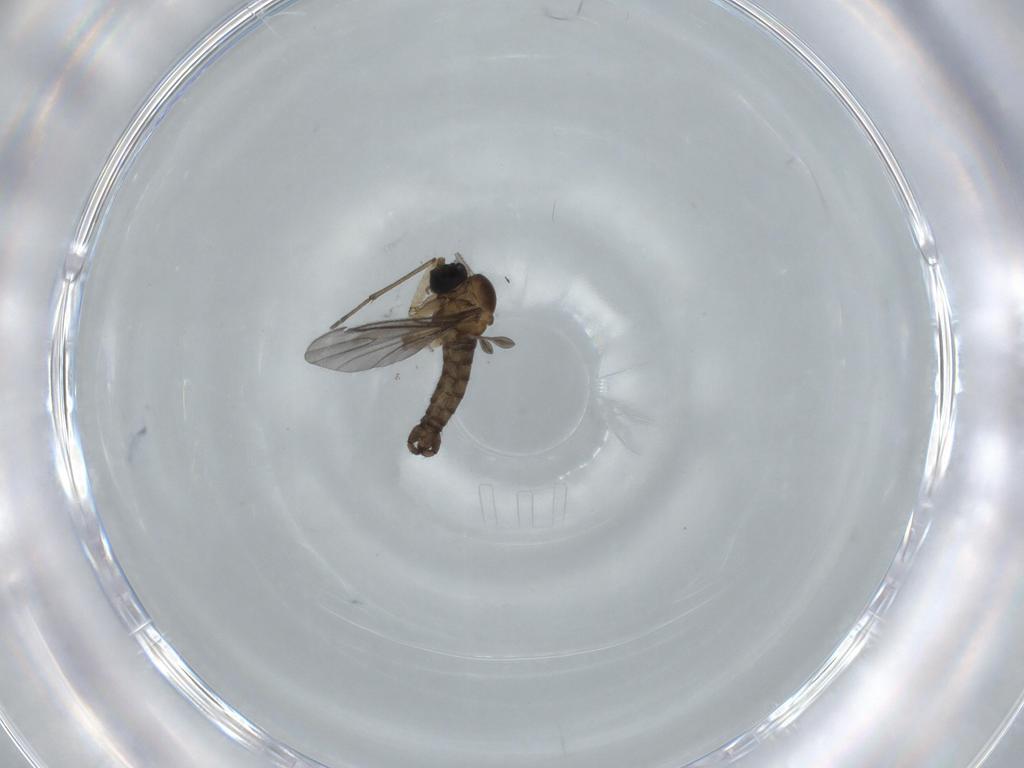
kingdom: Animalia
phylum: Arthropoda
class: Insecta
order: Diptera
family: Sciaridae
